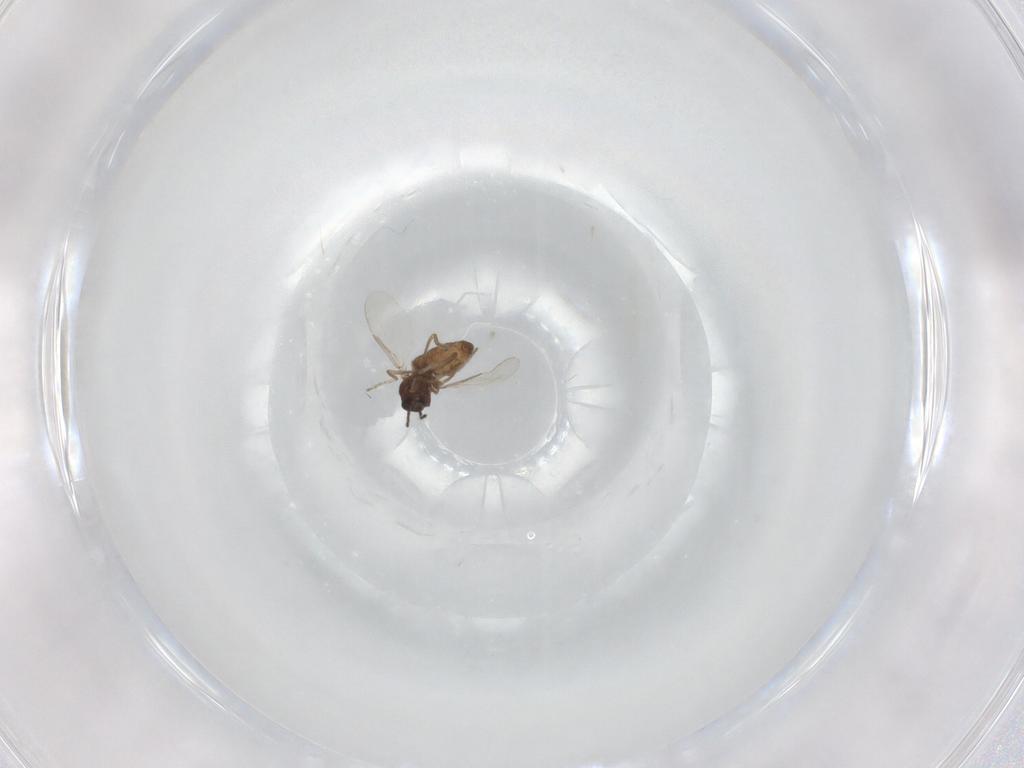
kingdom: Animalia
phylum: Arthropoda
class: Insecta
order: Diptera
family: Ceratopogonidae
